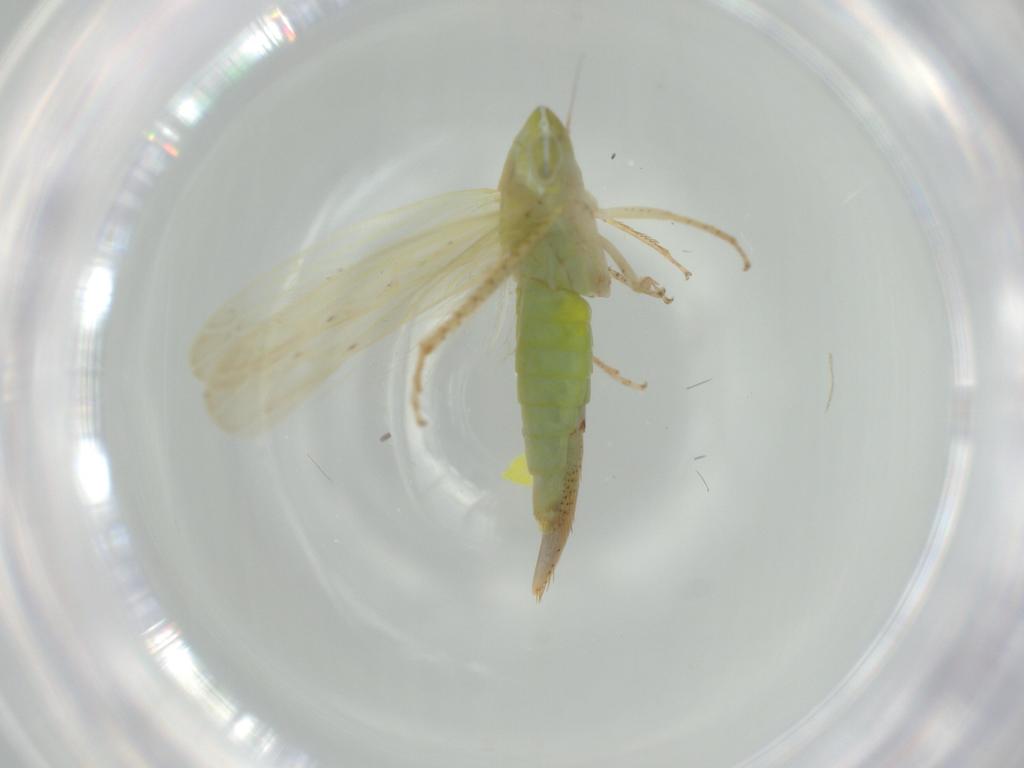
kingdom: Animalia
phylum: Arthropoda
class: Insecta
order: Hemiptera
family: Cicadellidae
